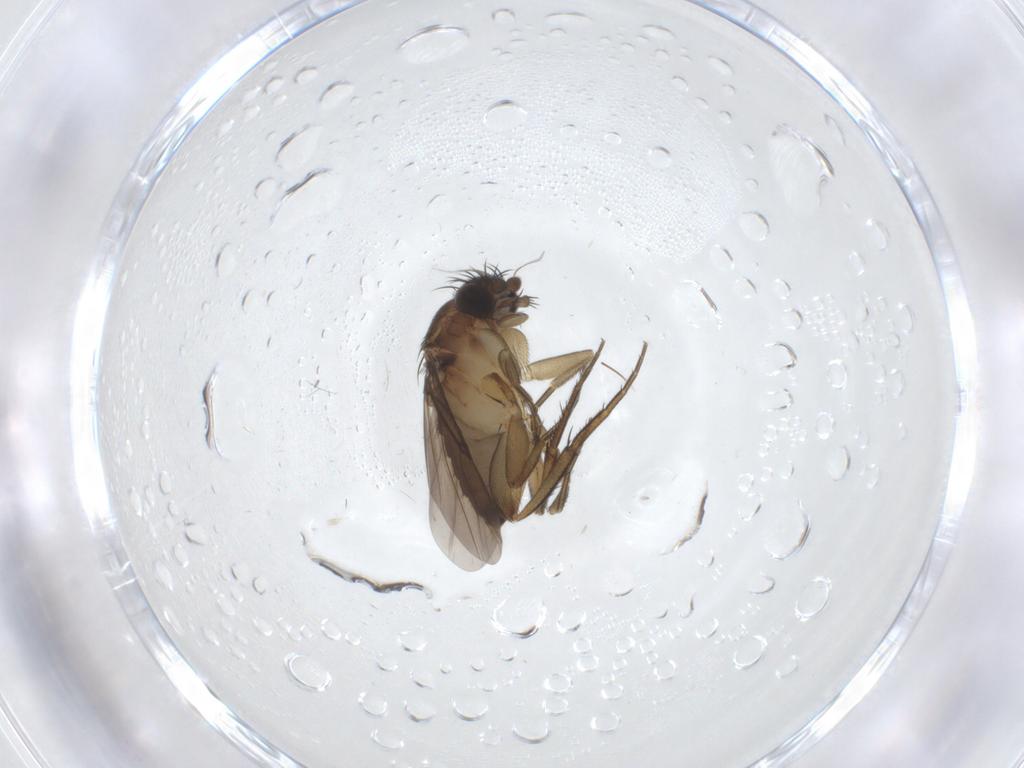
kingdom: Animalia
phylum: Arthropoda
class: Insecta
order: Diptera
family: Phoridae
